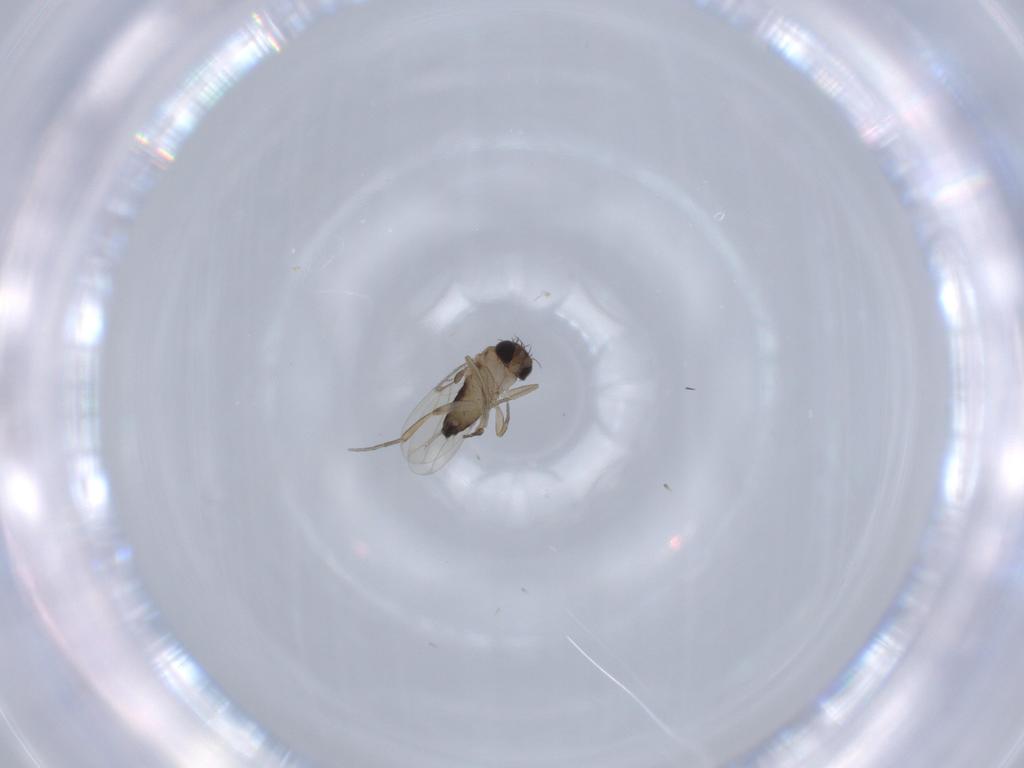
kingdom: Animalia
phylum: Arthropoda
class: Insecta
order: Diptera
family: Phoridae
